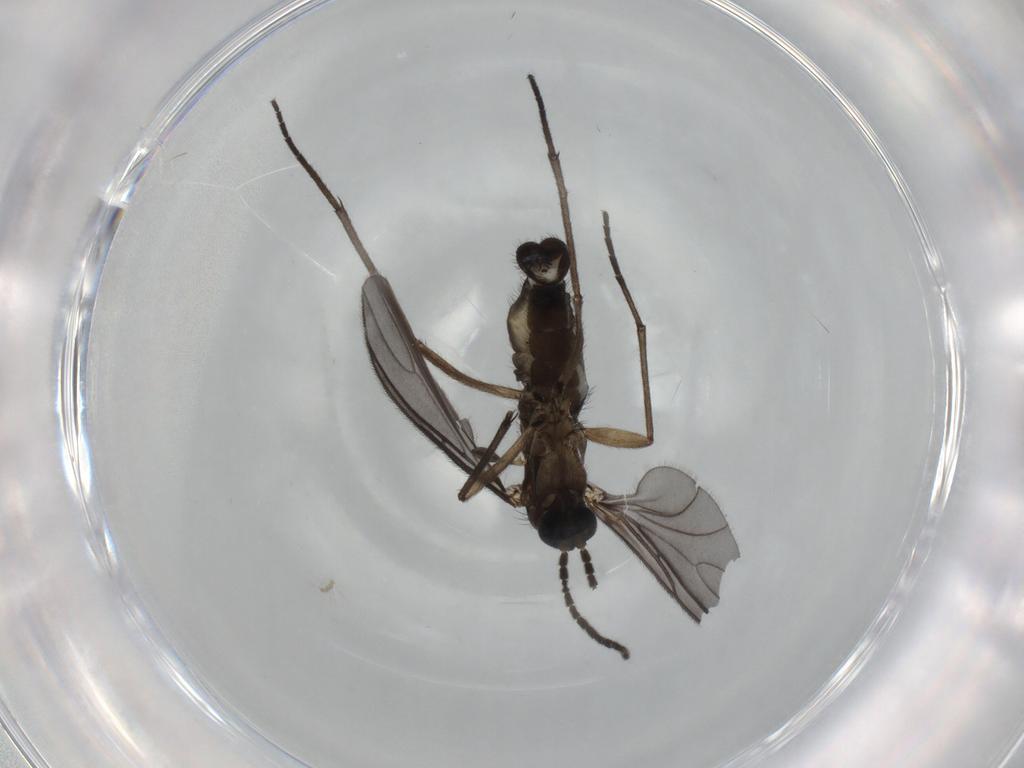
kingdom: Animalia
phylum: Arthropoda
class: Insecta
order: Diptera
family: Sciaridae
